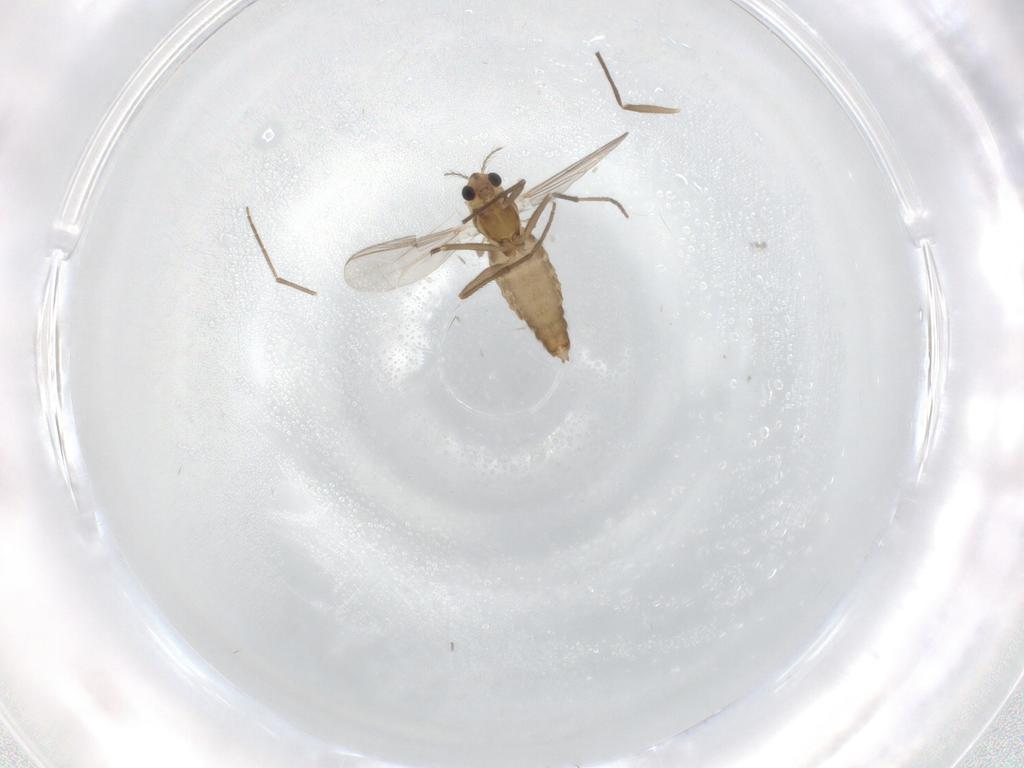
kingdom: Animalia
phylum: Arthropoda
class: Insecta
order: Diptera
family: Chironomidae
